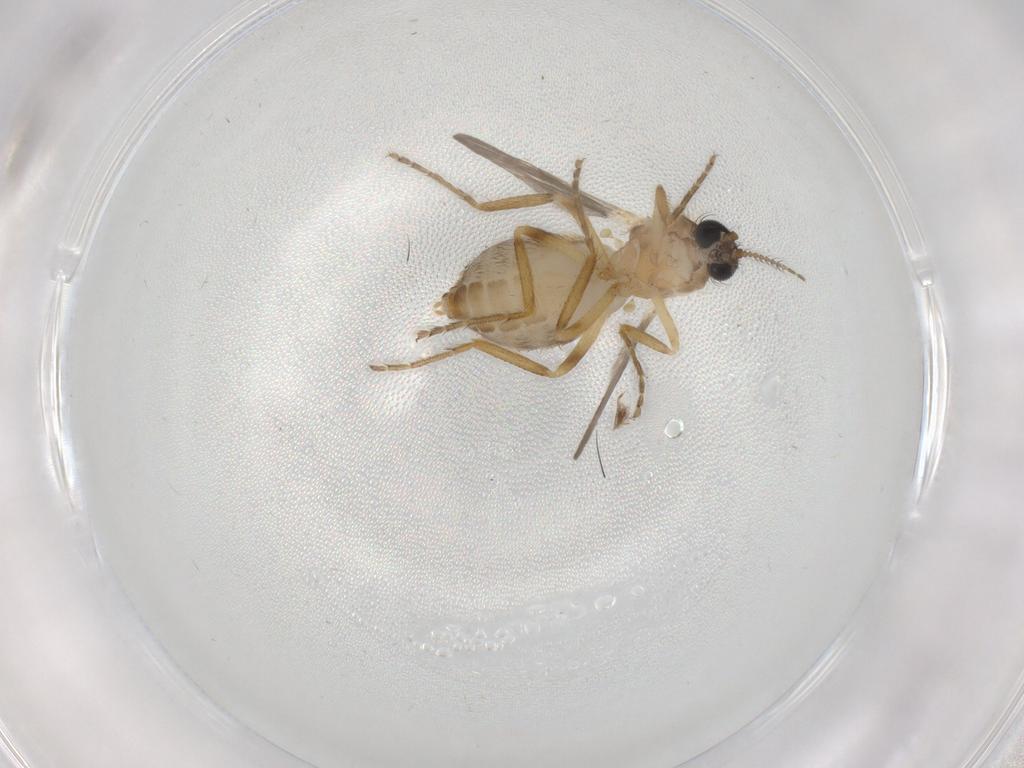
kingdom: Animalia
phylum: Arthropoda
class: Insecta
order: Diptera
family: Ceratopogonidae
